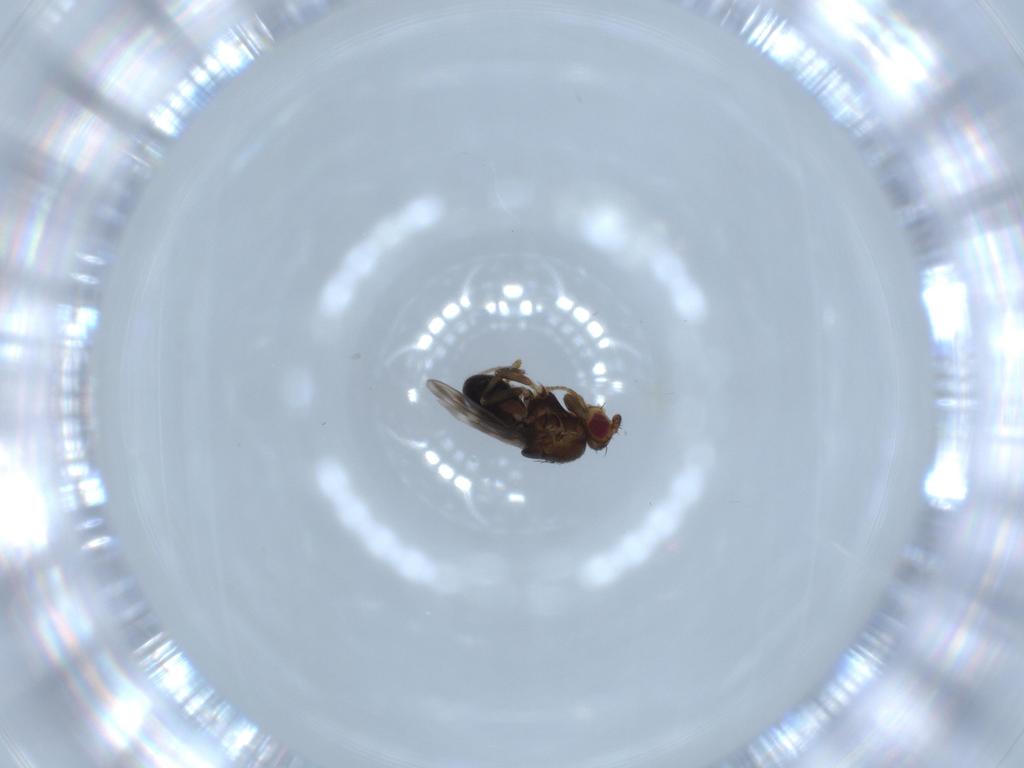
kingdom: Animalia
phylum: Arthropoda
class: Insecta
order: Diptera
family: Sphaeroceridae
